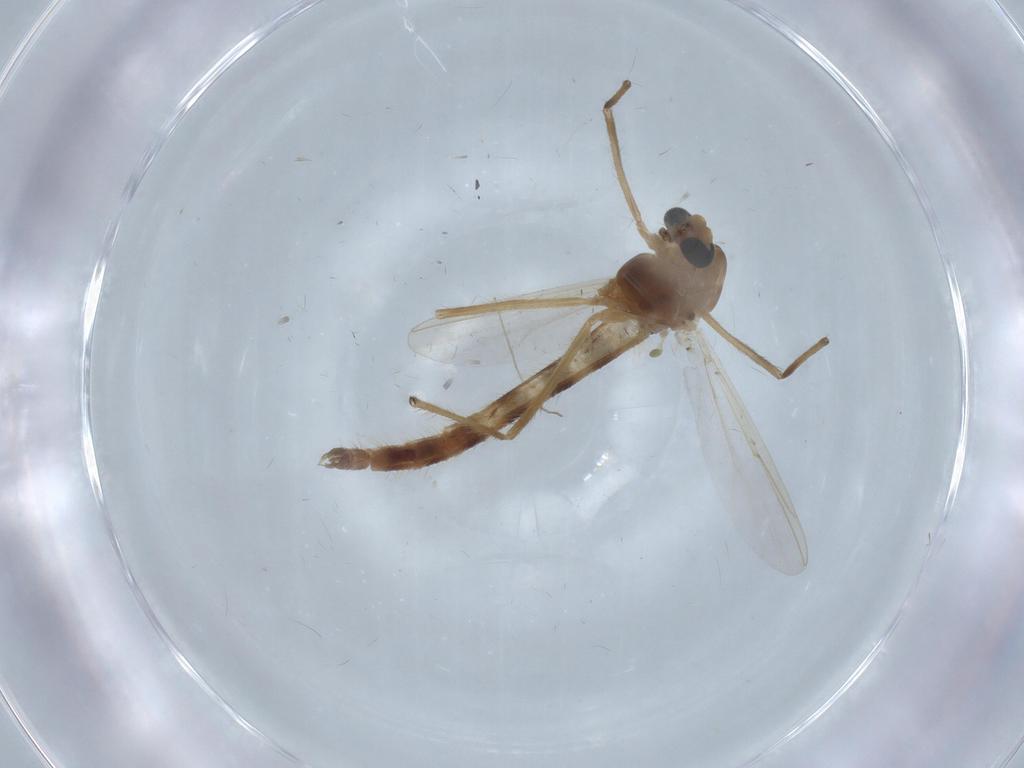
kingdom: Animalia
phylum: Arthropoda
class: Insecta
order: Diptera
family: Chironomidae
